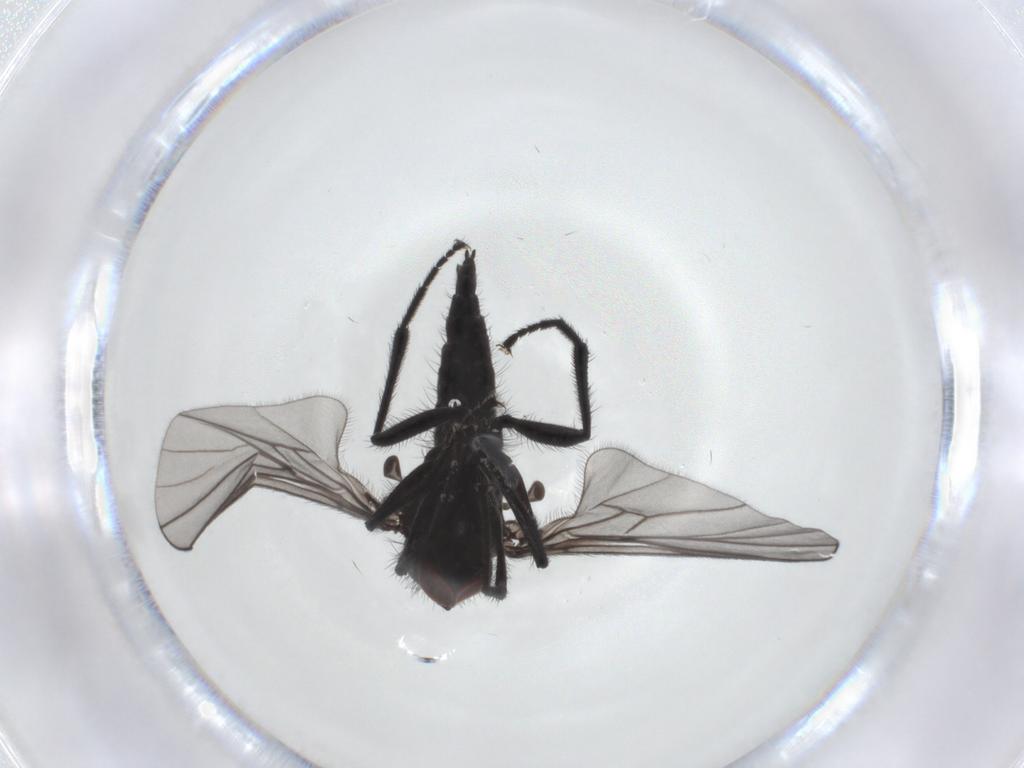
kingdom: Animalia
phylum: Arthropoda
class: Insecta
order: Diptera
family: Hybotidae
